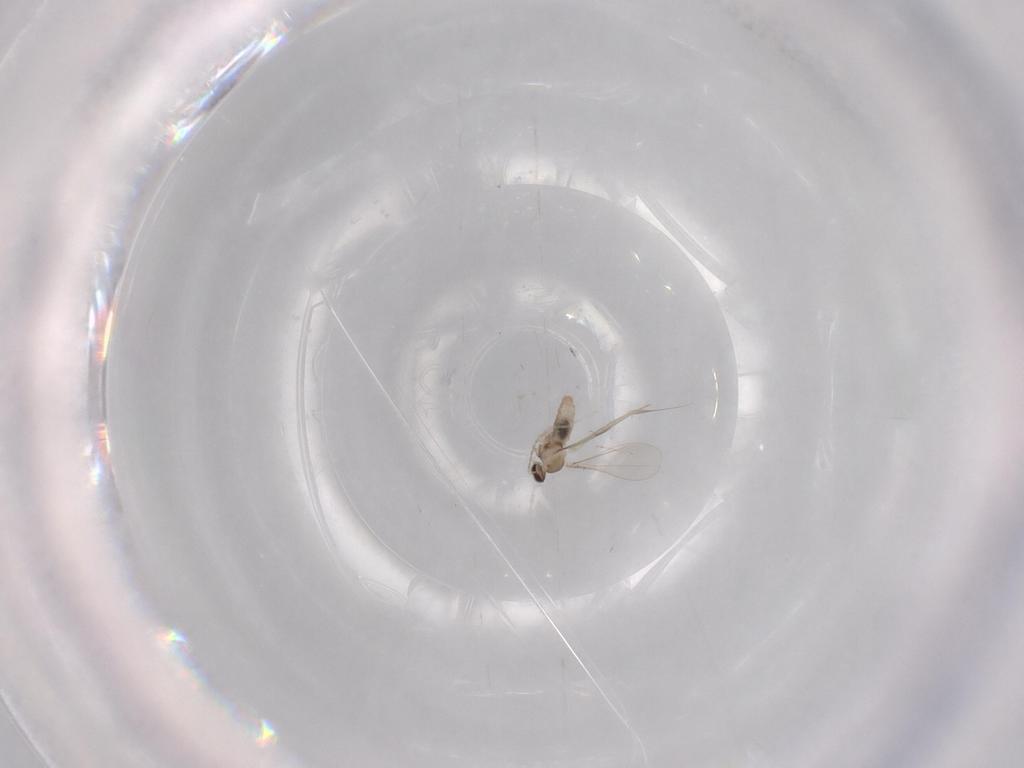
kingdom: Animalia
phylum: Arthropoda
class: Insecta
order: Diptera
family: Cecidomyiidae
